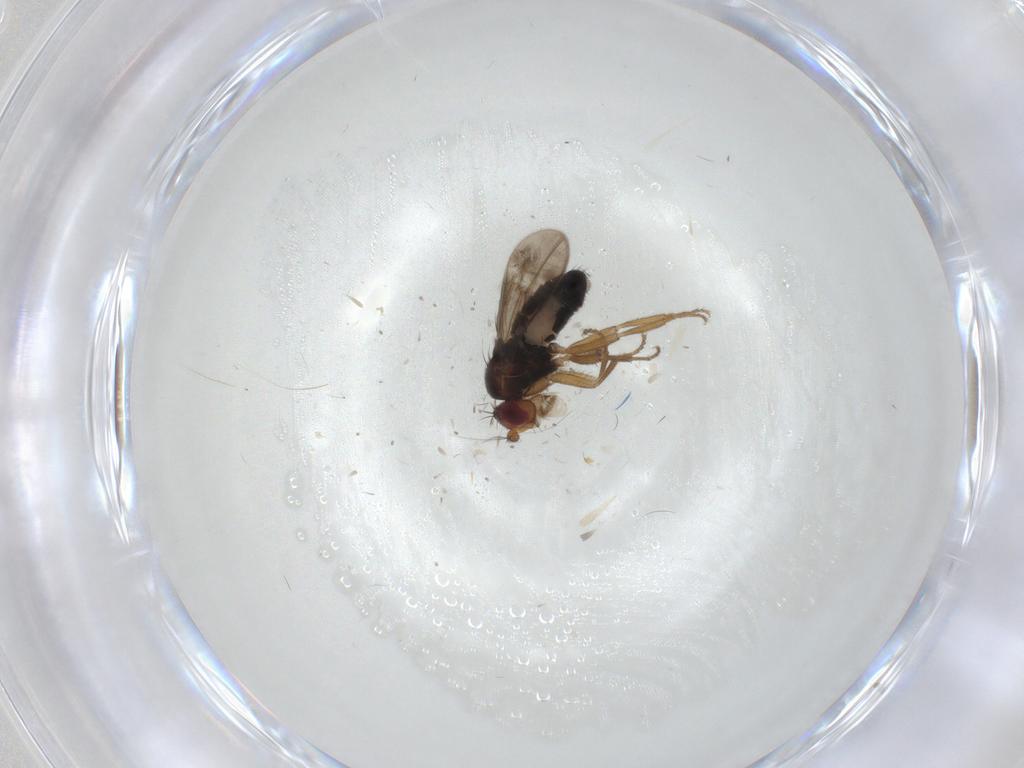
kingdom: Animalia
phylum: Arthropoda
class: Insecta
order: Diptera
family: Sphaeroceridae
